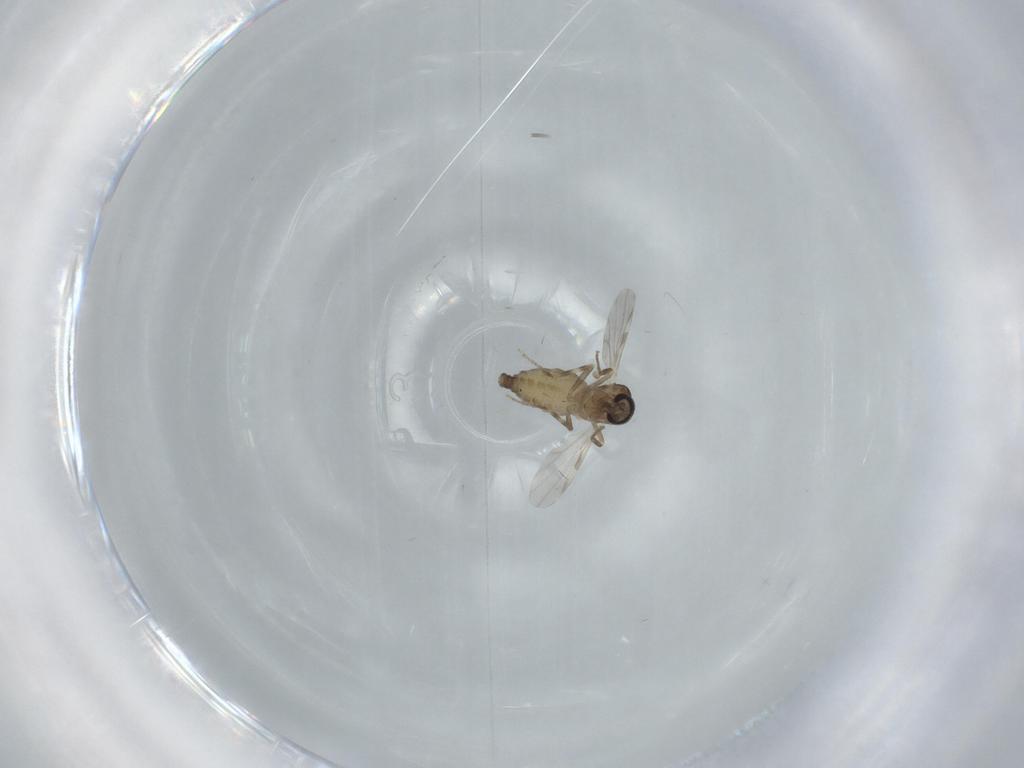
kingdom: Animalia
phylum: Arthropoda
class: Insecta
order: Diptera
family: Ceratopogonidae
